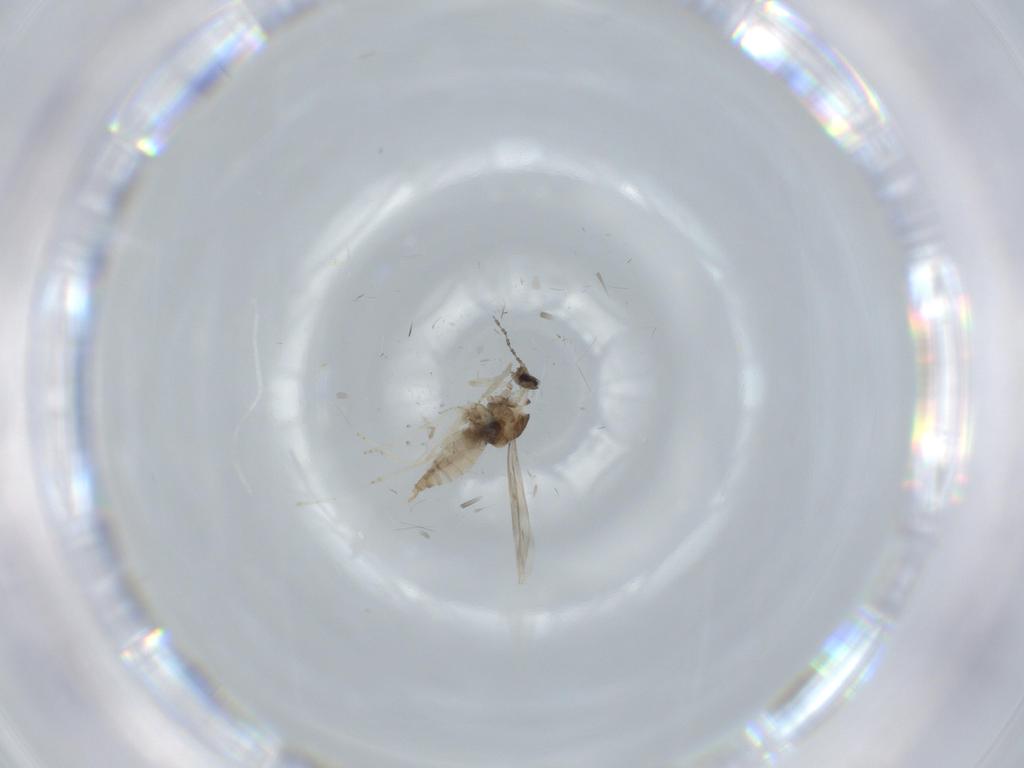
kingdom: Animalia
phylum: Arthropoda
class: Insecta
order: Diptera
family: Cecidomyiidae
